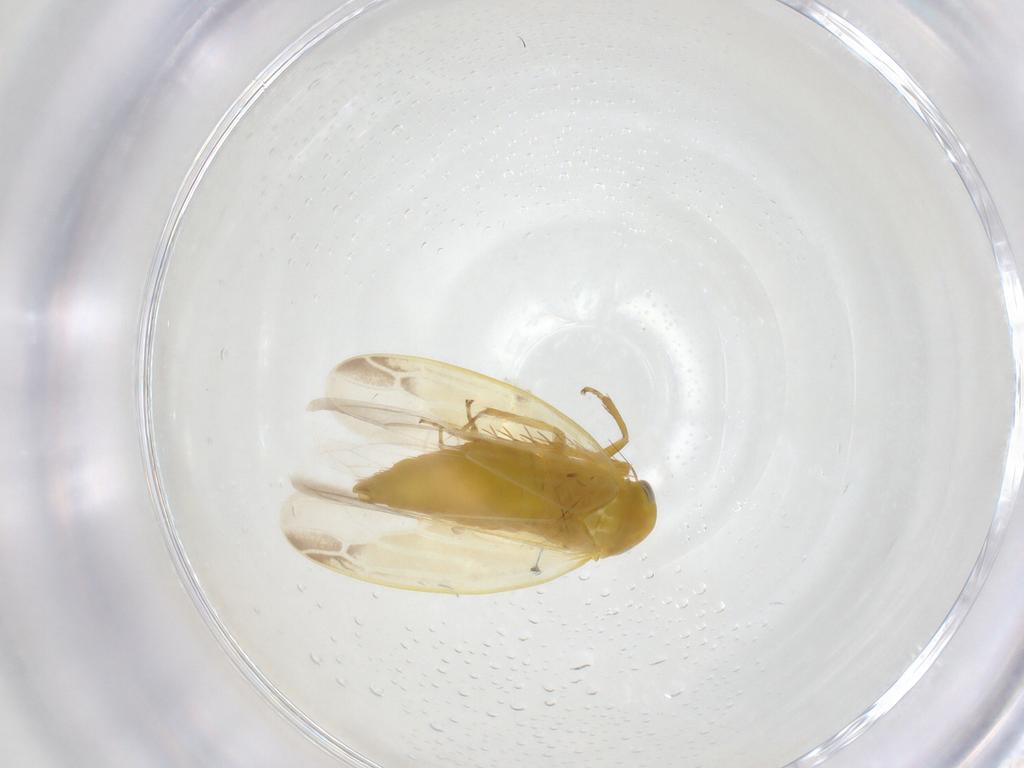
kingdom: Animalia
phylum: Arthropoda
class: Insecta
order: Hemiptera
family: Cicadellidae
